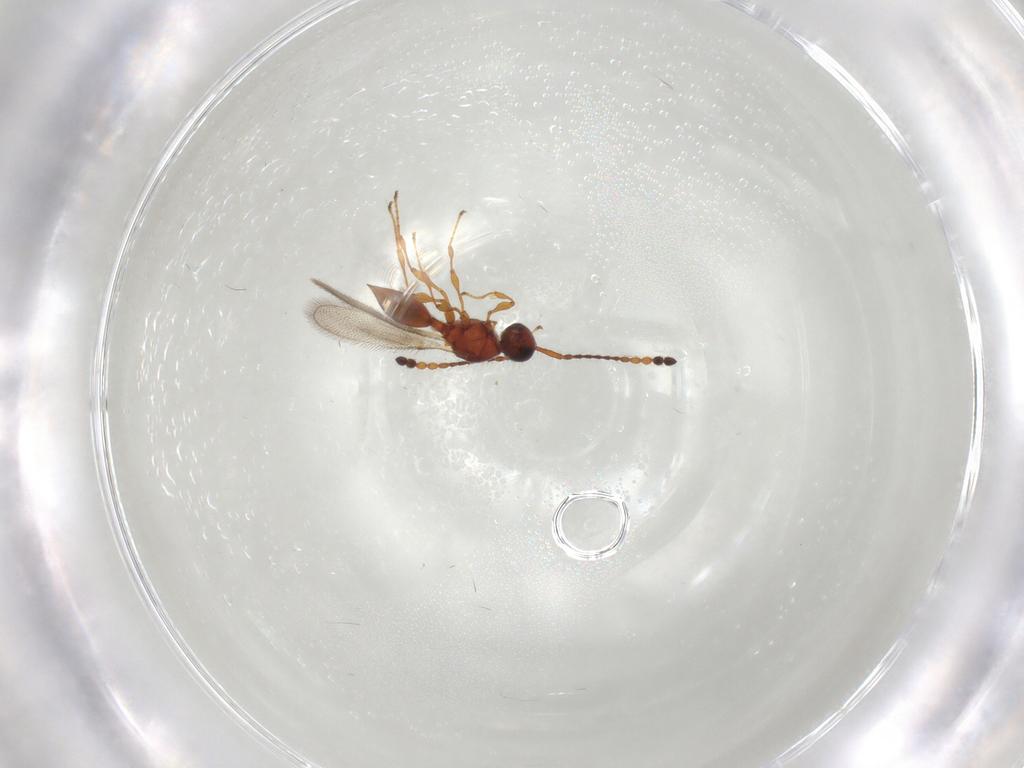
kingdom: Animalia
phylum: Arthropoda
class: Insecta
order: Hymenoptera
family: Diapriidae
